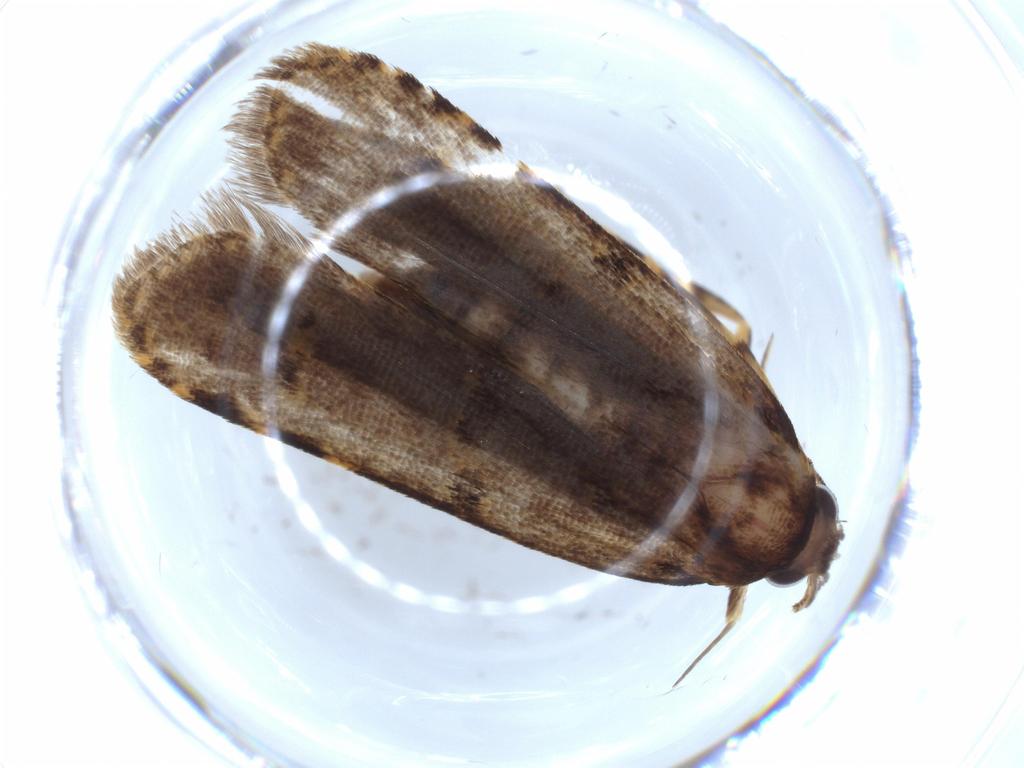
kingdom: Animalia
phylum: Arthropoda
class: Insecta
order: Lepidoptera
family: Autostichidae
